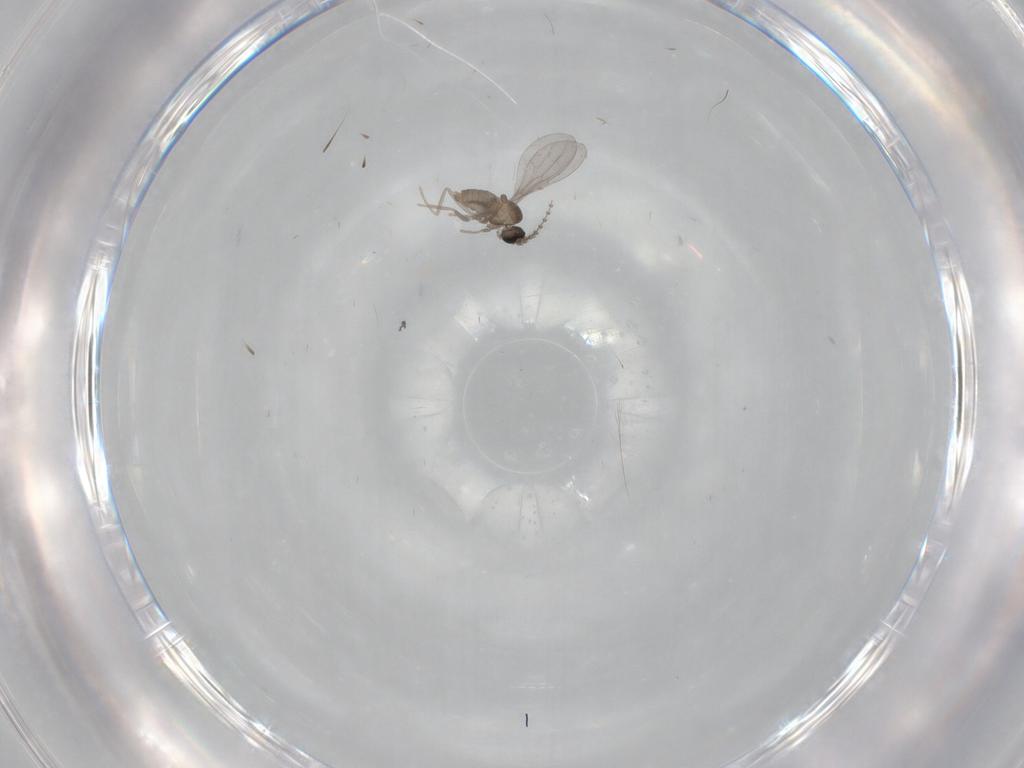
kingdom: Animalia
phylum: Arthropoda
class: Insecta
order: Diptera
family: Cecidomyiidae
